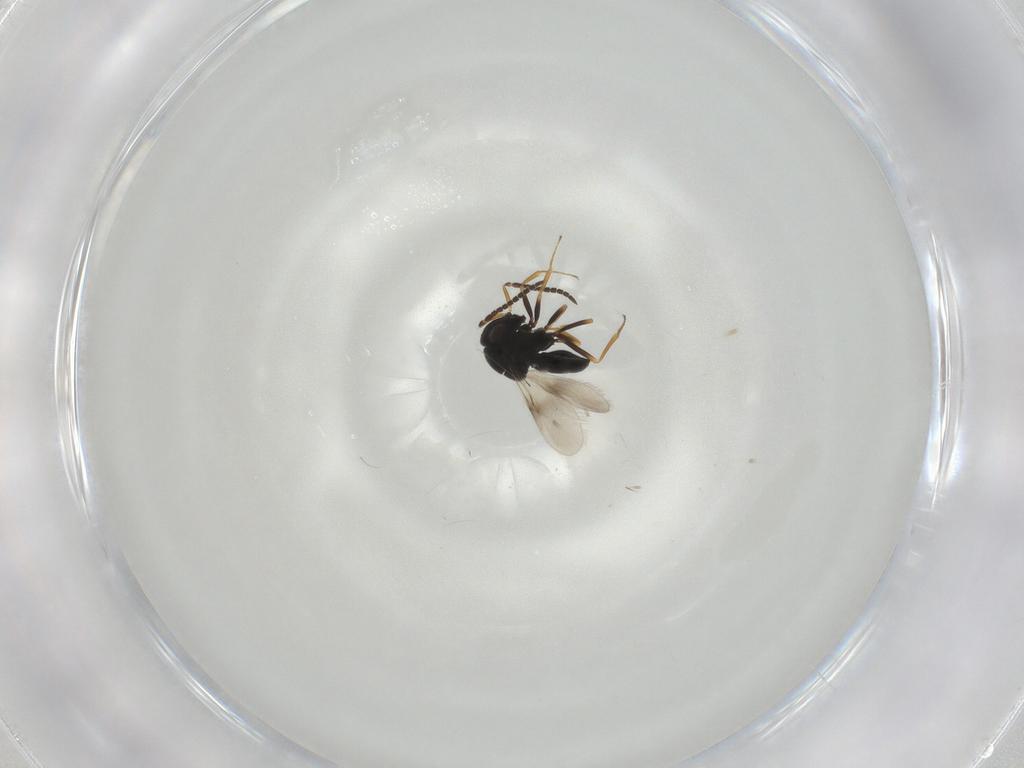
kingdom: Animalia
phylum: Arthropoda
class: Insecta
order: Hymenoptera
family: Scelionidae
